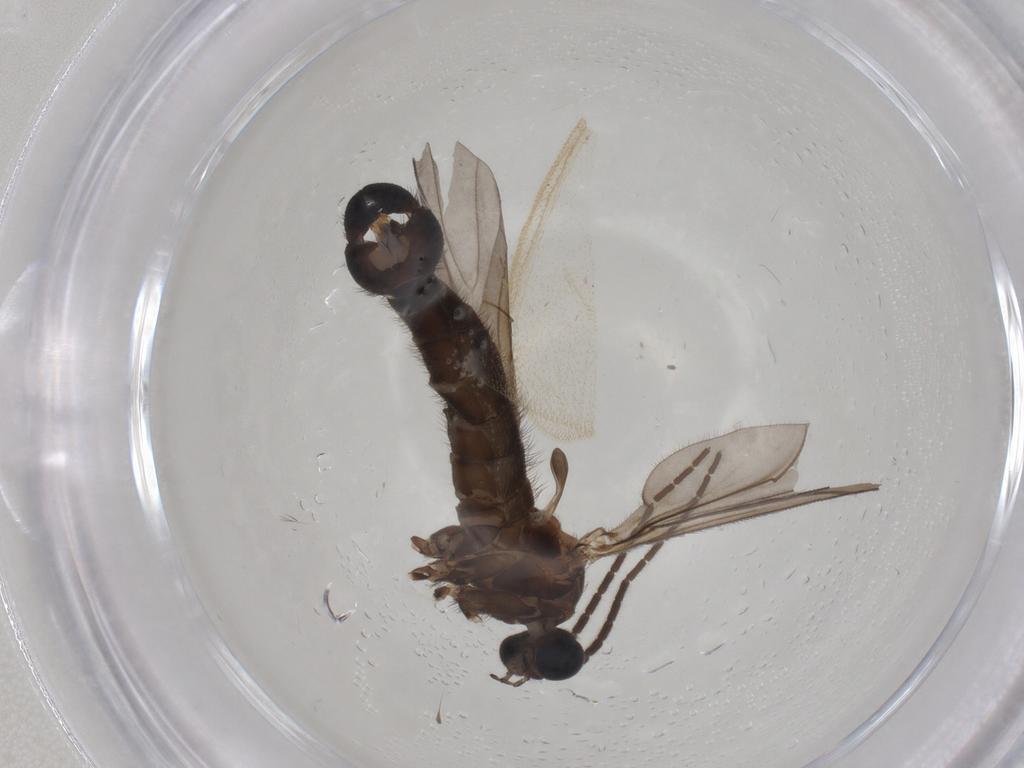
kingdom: Animalia
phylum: Arthropoda
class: Insecta
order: Diptera
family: Sciaridae
